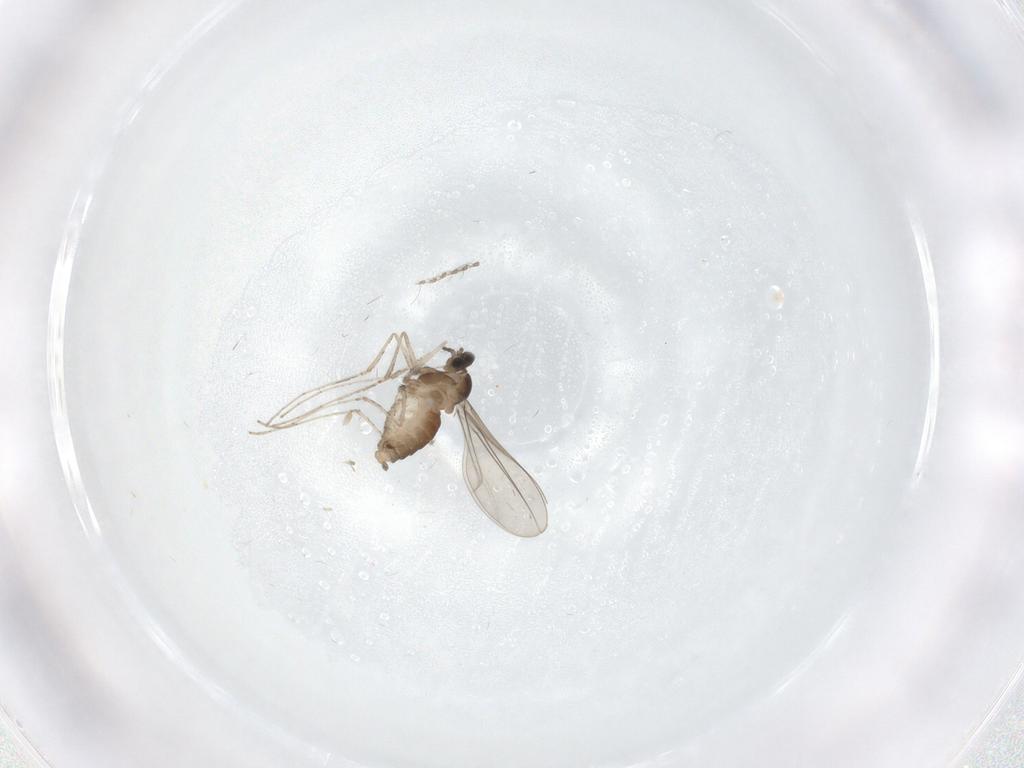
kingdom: Animalia
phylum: Arthropoda
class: Insecta
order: Diptera
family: Cecidomyiidae
